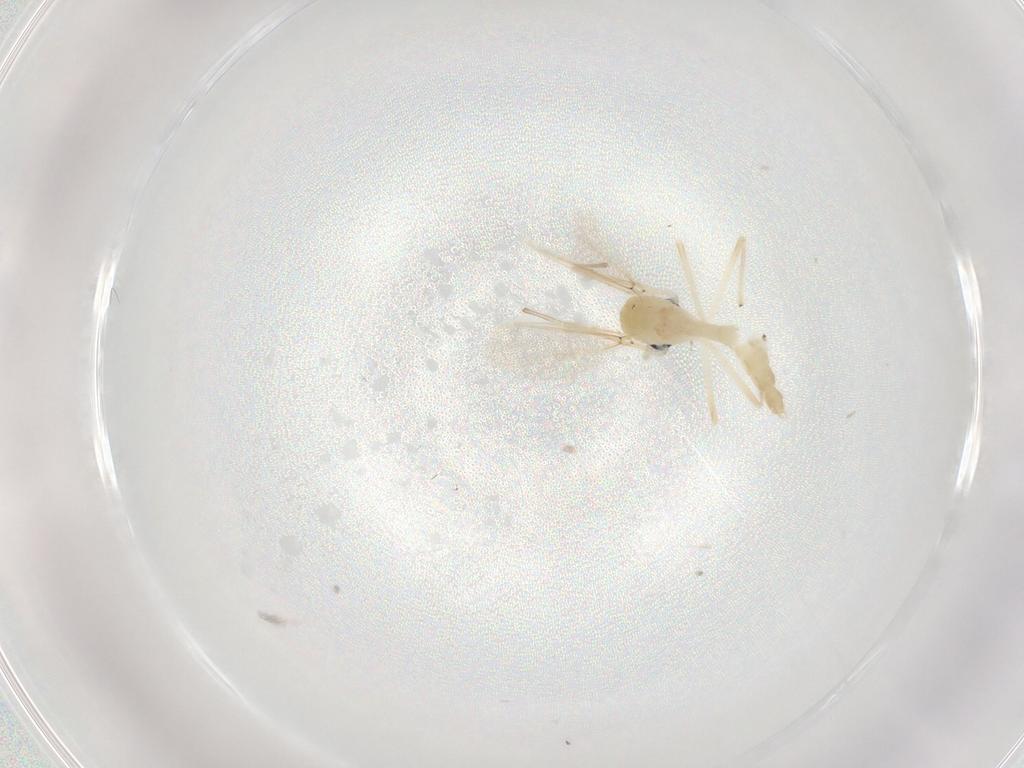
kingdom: Animalia
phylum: Arthropoda
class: Insecta
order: Diptera
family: Chironomidae
